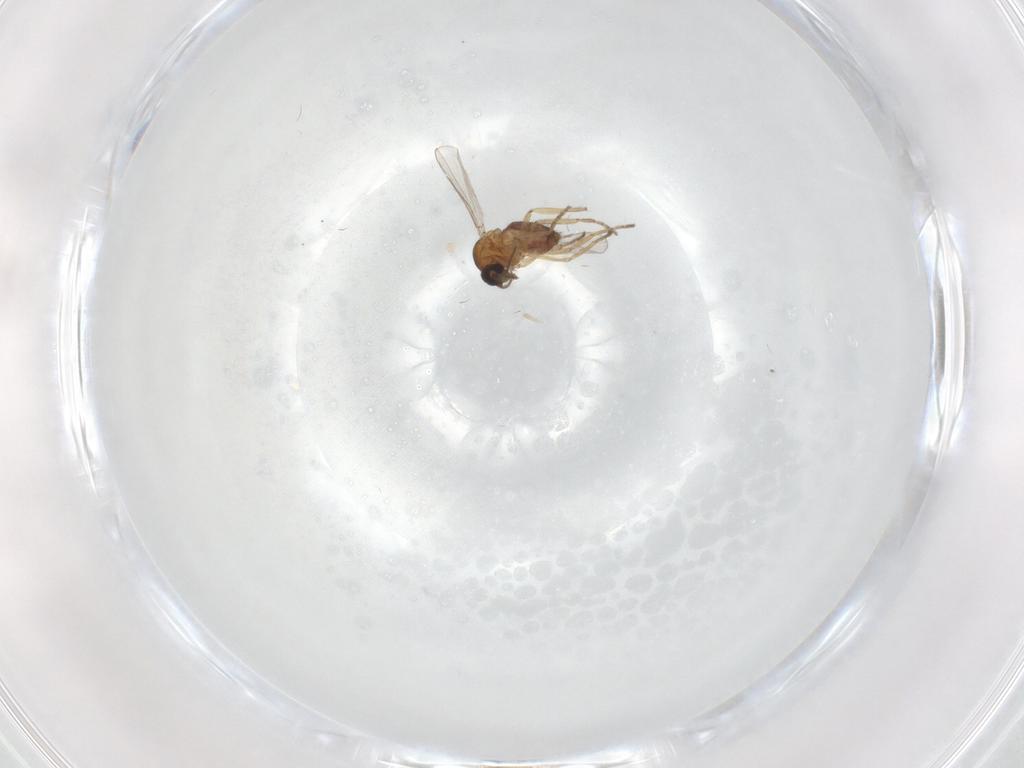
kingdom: Animalia
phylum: Arthropoda
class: Insecta
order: Diptera
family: Ceratopogonidae
